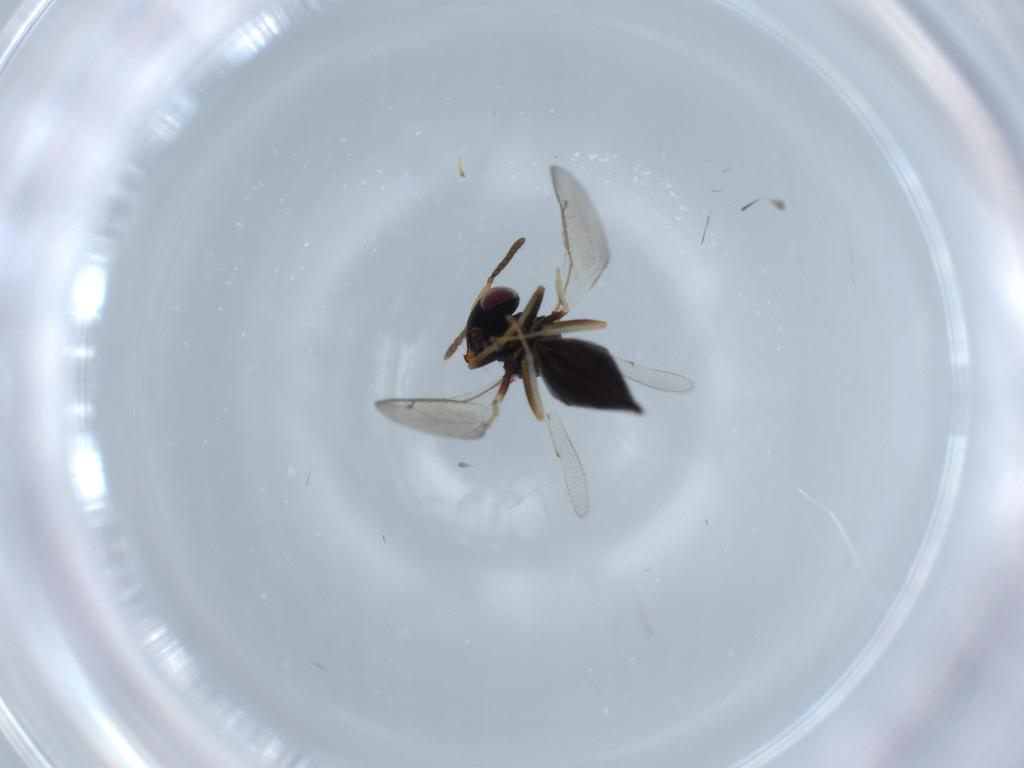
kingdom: Animalia
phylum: Arthropoda
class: Insecta
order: Hymenoptera
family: Pteromalidae
